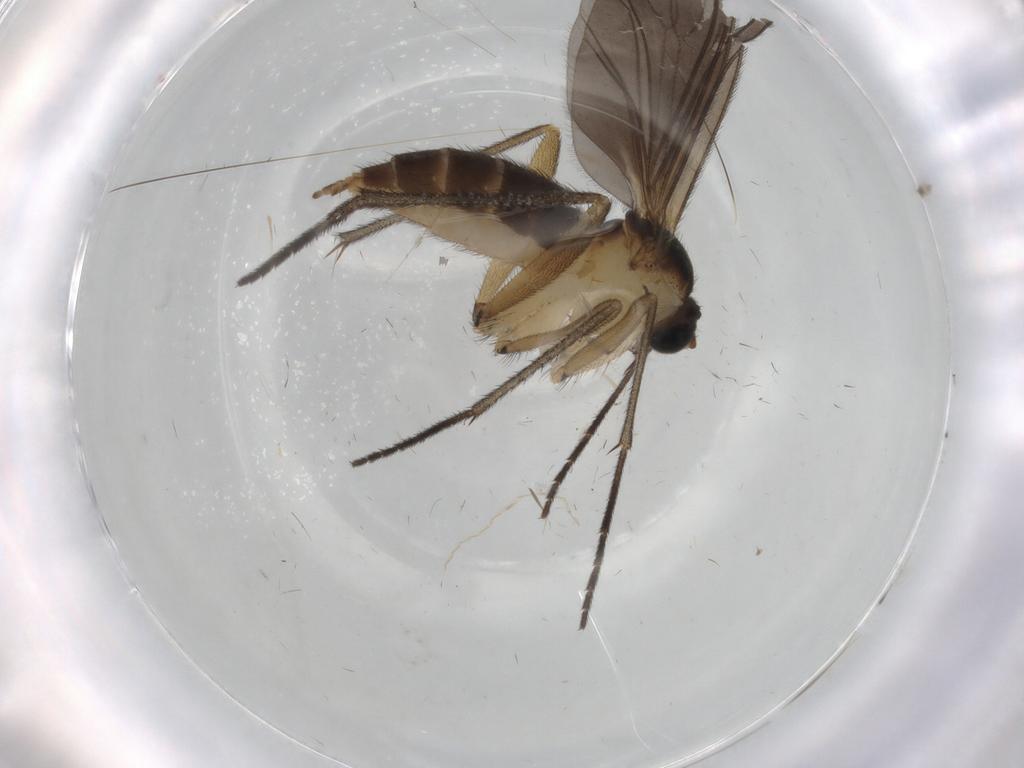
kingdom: Animalia
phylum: Arthropoda
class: Insecta
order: Diptera
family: Sciaridae
